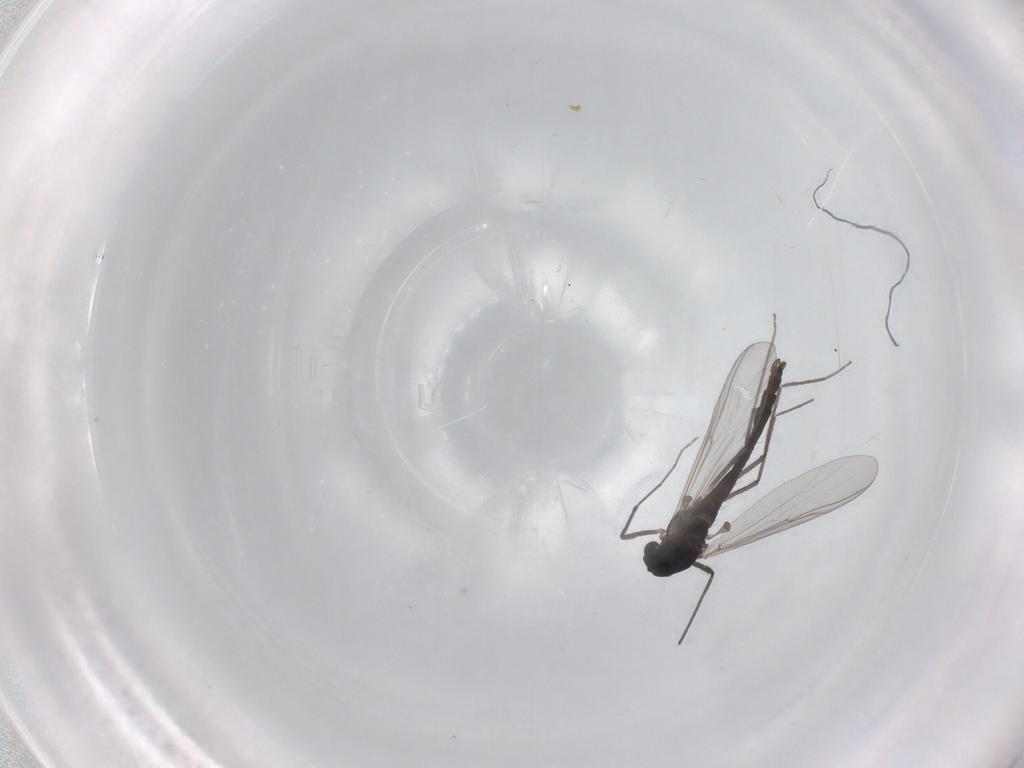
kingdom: Animalia
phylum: Arthropoda
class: Insecta
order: Diptera
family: Chironomidae
